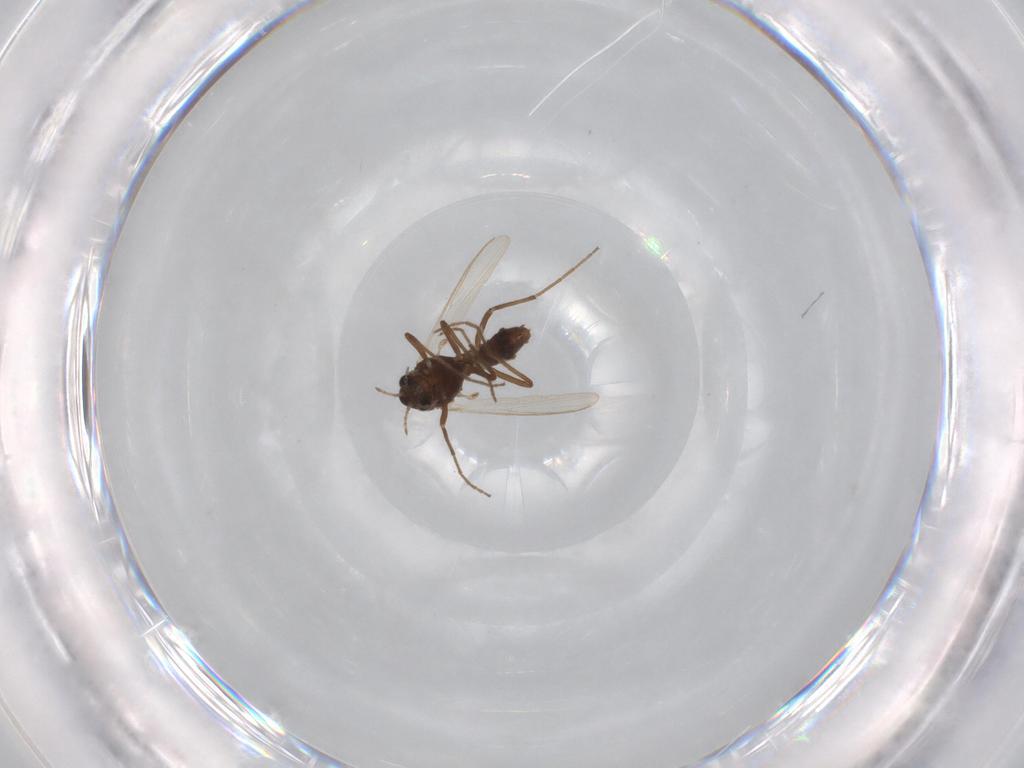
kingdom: Animalia
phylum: Arthropoda
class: Insecta
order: Diptera
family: Chironomidae
